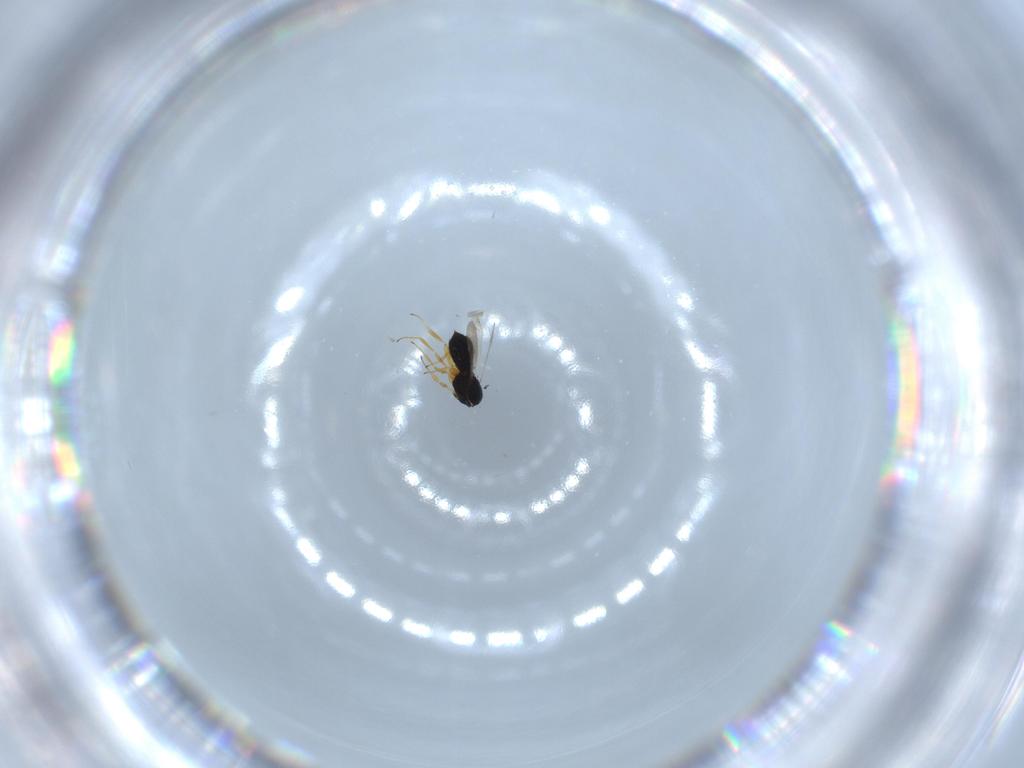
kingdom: Animalia
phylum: Arthropoda
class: Insecta
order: Hymenoptera
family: Scelionidae
